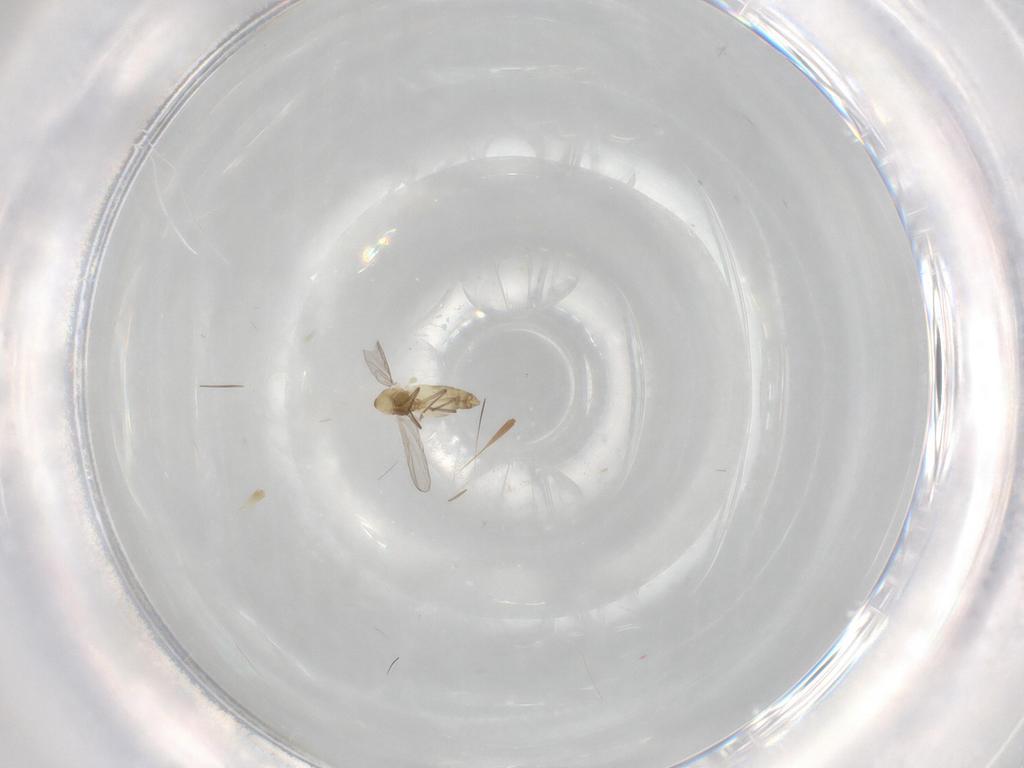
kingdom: Animalia
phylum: Arthropoda
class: Insecta
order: Diptera
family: Chironomidae
